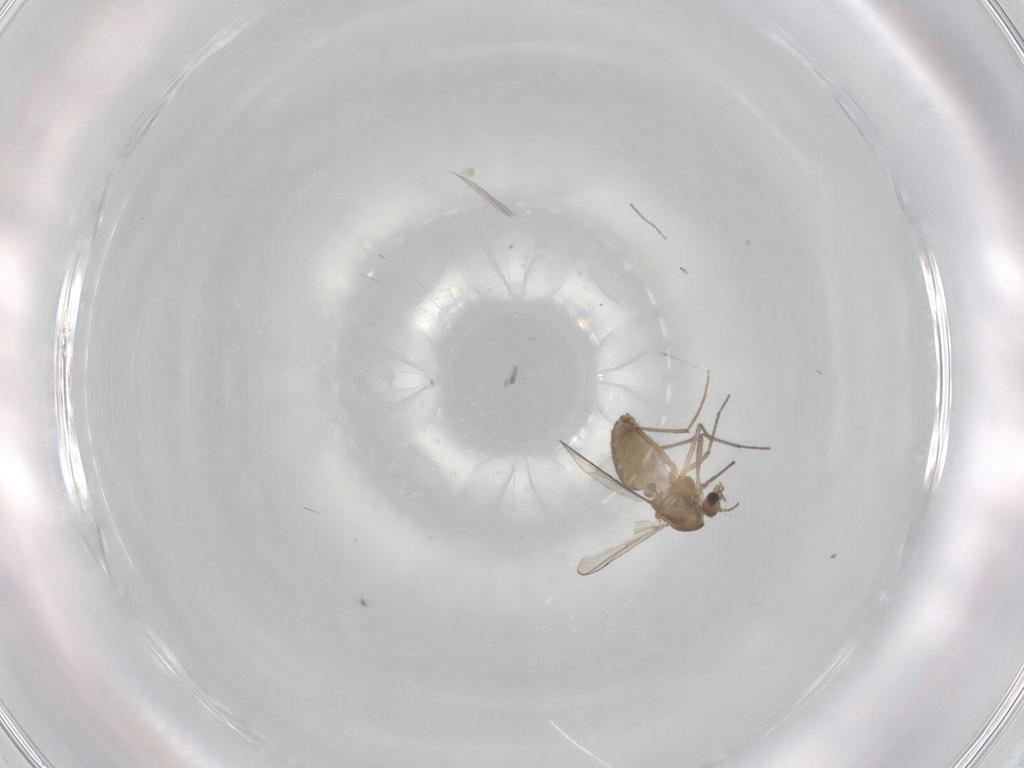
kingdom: Animalia
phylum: Arthropoda
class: Insecta
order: Diptera
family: Chironomidae
